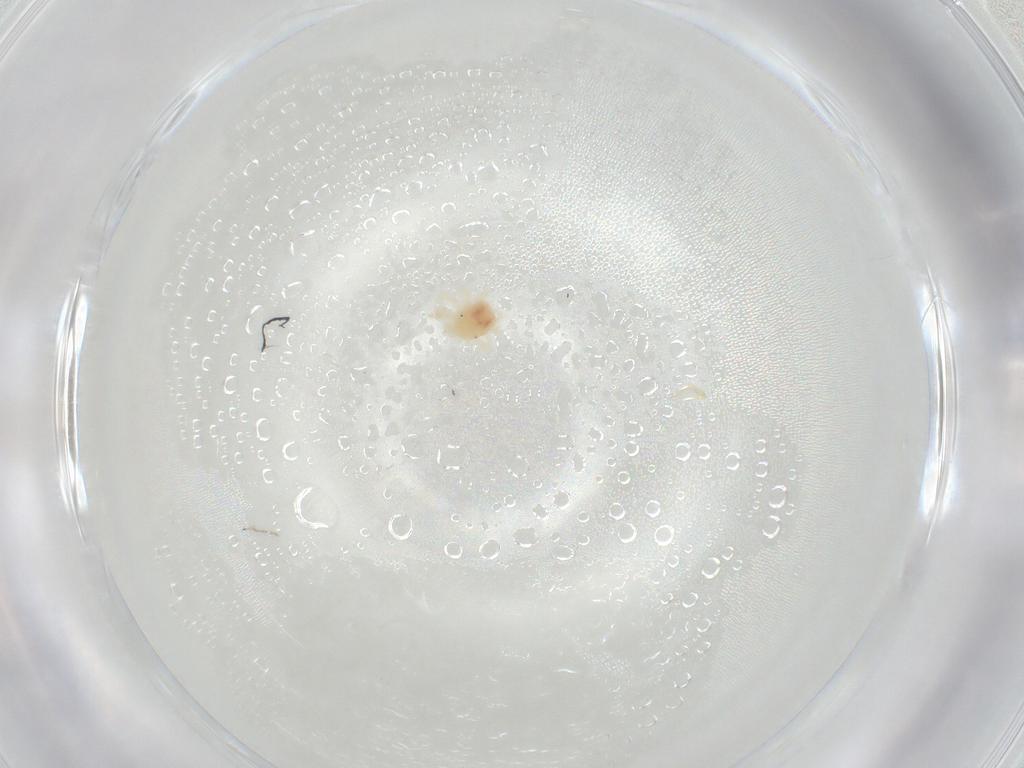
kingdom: Animalia
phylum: Arthropoda
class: Arachnida
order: Trombidiformes
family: Anystidae
